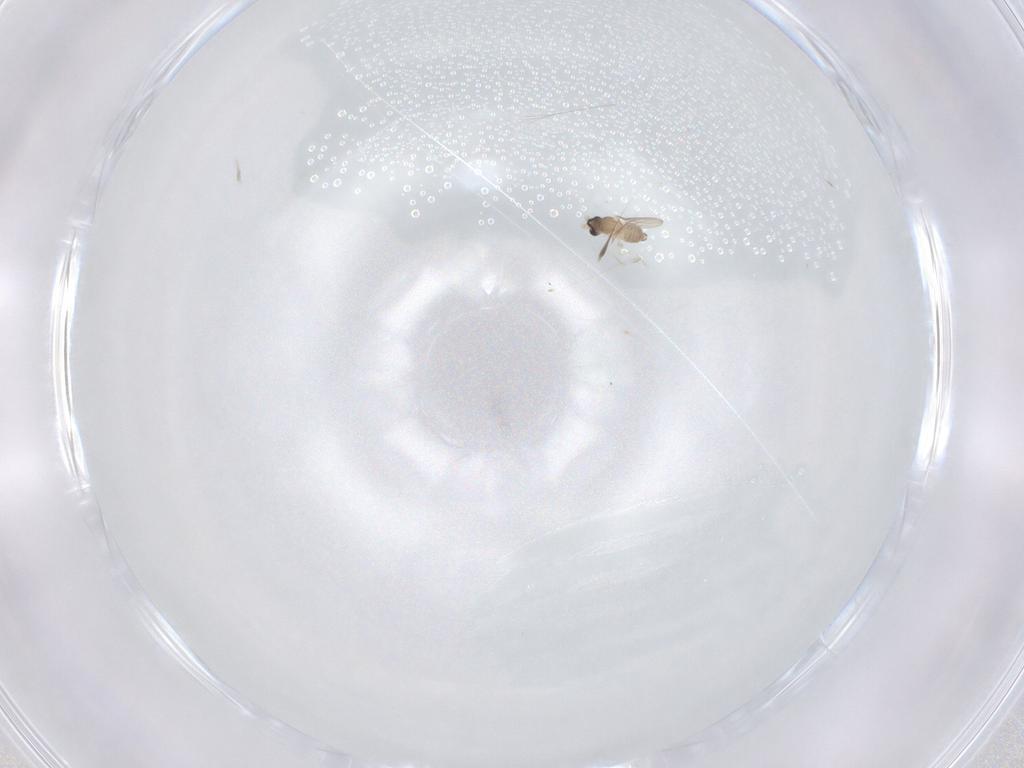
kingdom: Animalia
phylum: Arthropoda
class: Insecta
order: Diptera
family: Cecidomyiidae
